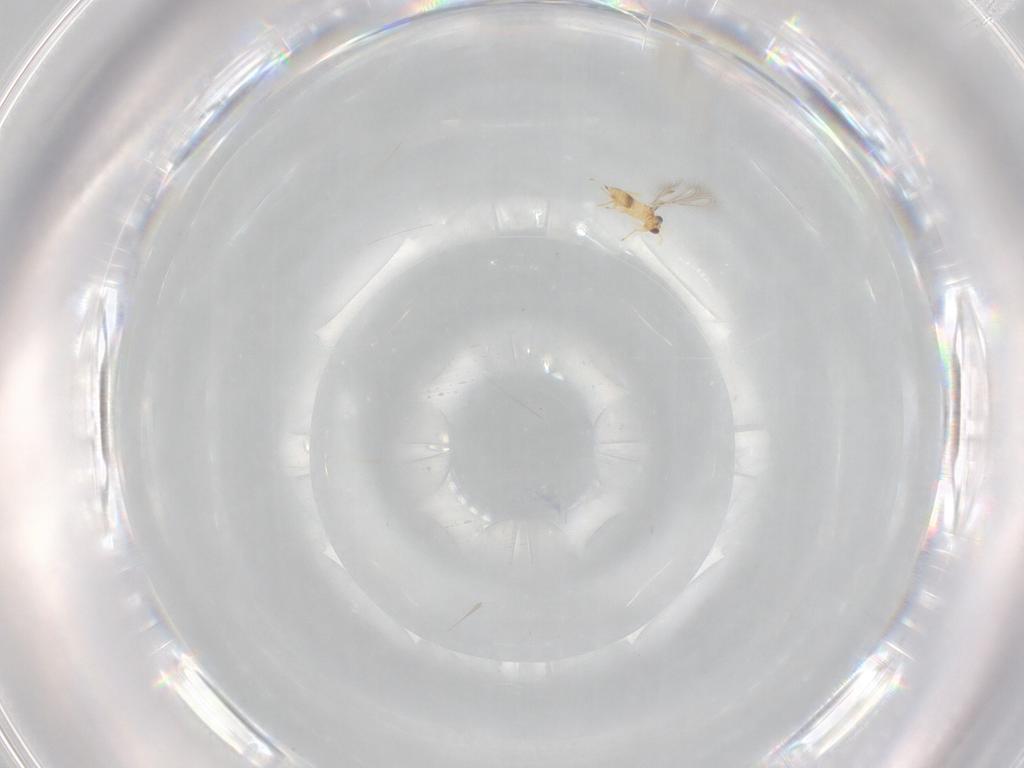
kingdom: Animalia
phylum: Arthropoda
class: Insecta
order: Hymenoptera
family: Mymaridae
